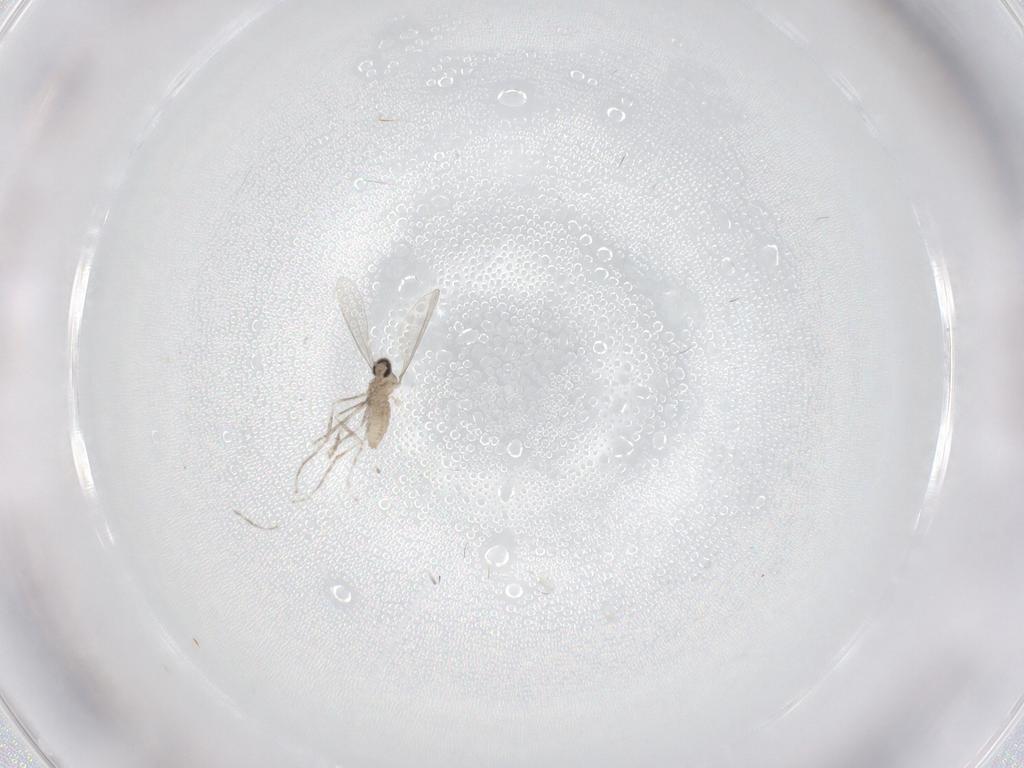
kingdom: Animalia
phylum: Arthropoda
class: Insecta
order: Diptera
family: Cecidomyiidae
